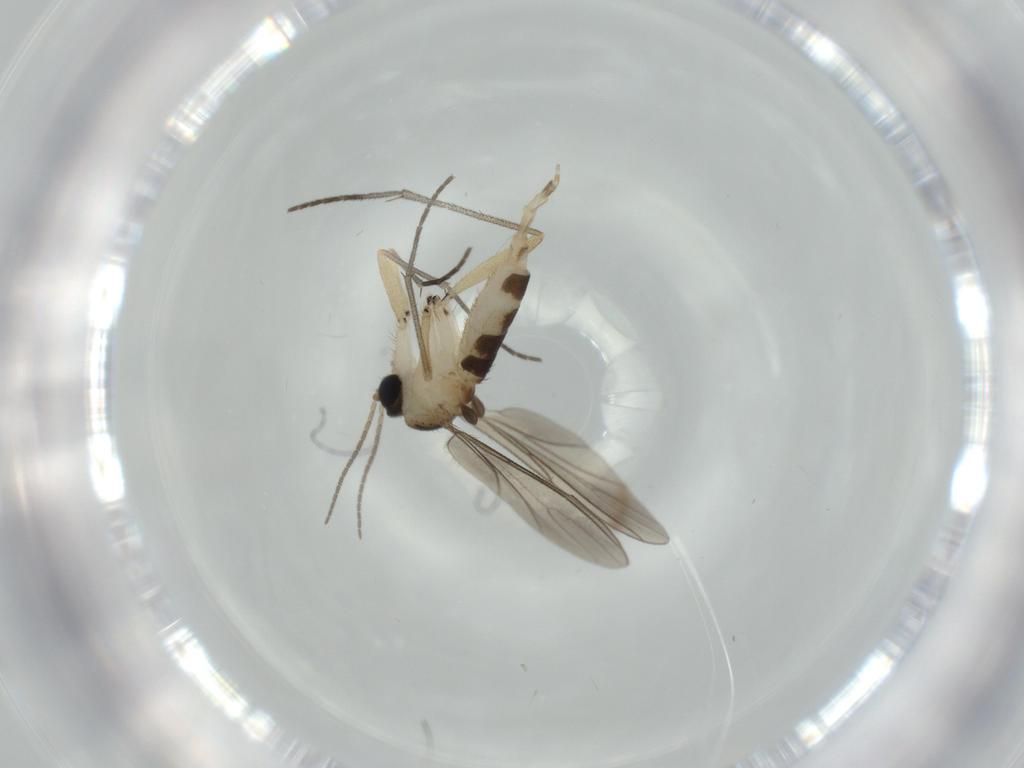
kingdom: Animalia
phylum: Arthropoda
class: Insecta
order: Diptera
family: Sciaridae
